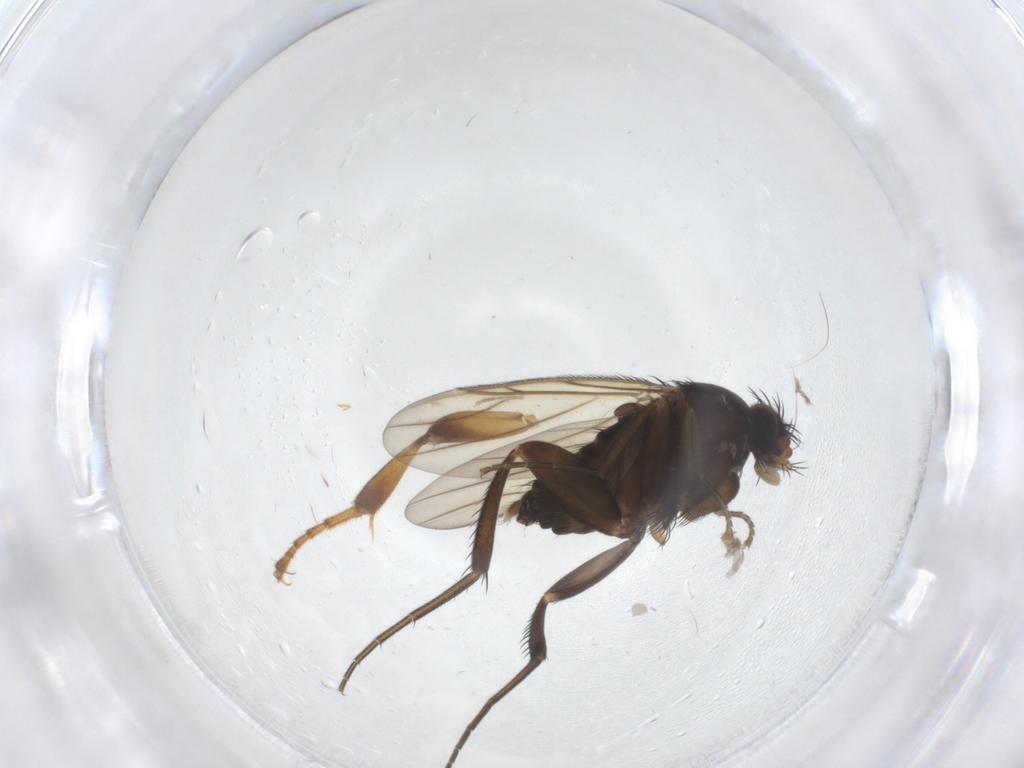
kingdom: Animalia
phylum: Arthropoda
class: Insecta
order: Diptera
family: Phoridae
